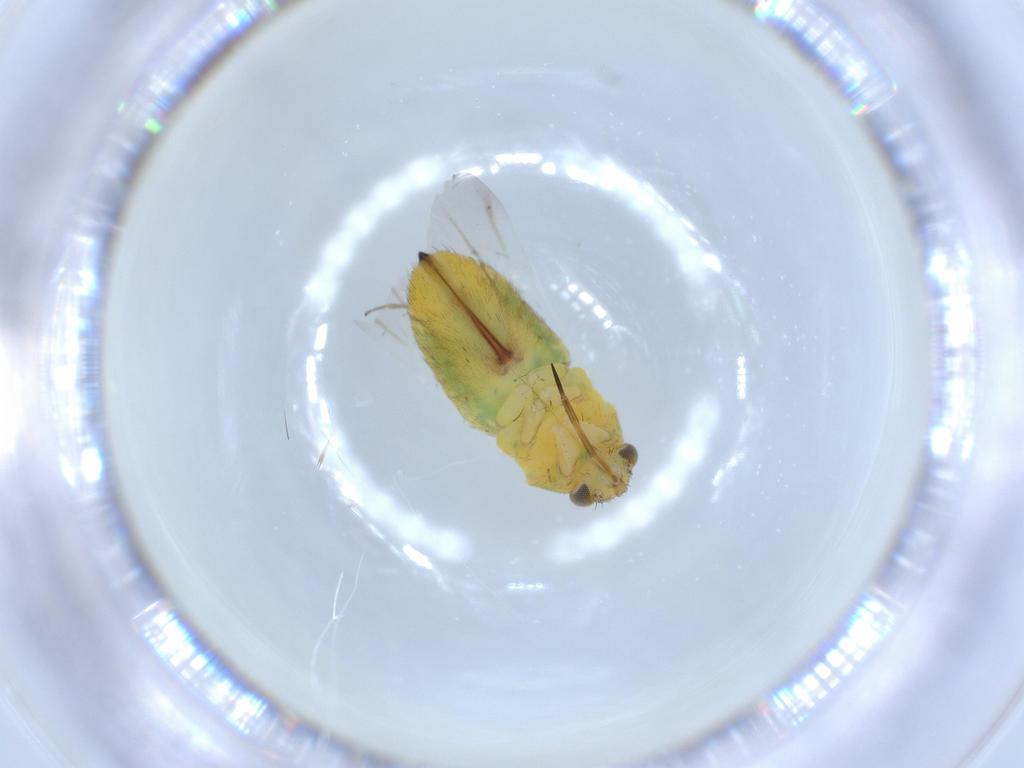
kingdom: Animalia
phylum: Arthropoda
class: Insecta
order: Hemiptera
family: Miridae
